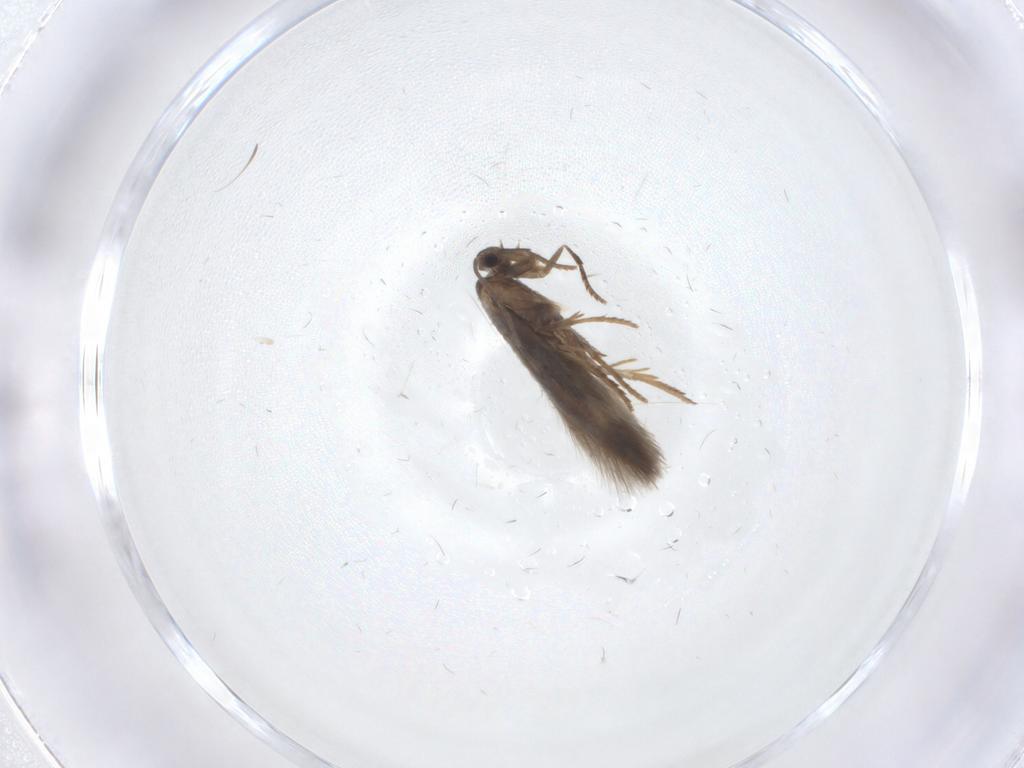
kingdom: Animalia
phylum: Arthropoda
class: Insecta
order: Lepidoptera
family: Heliozelidae
